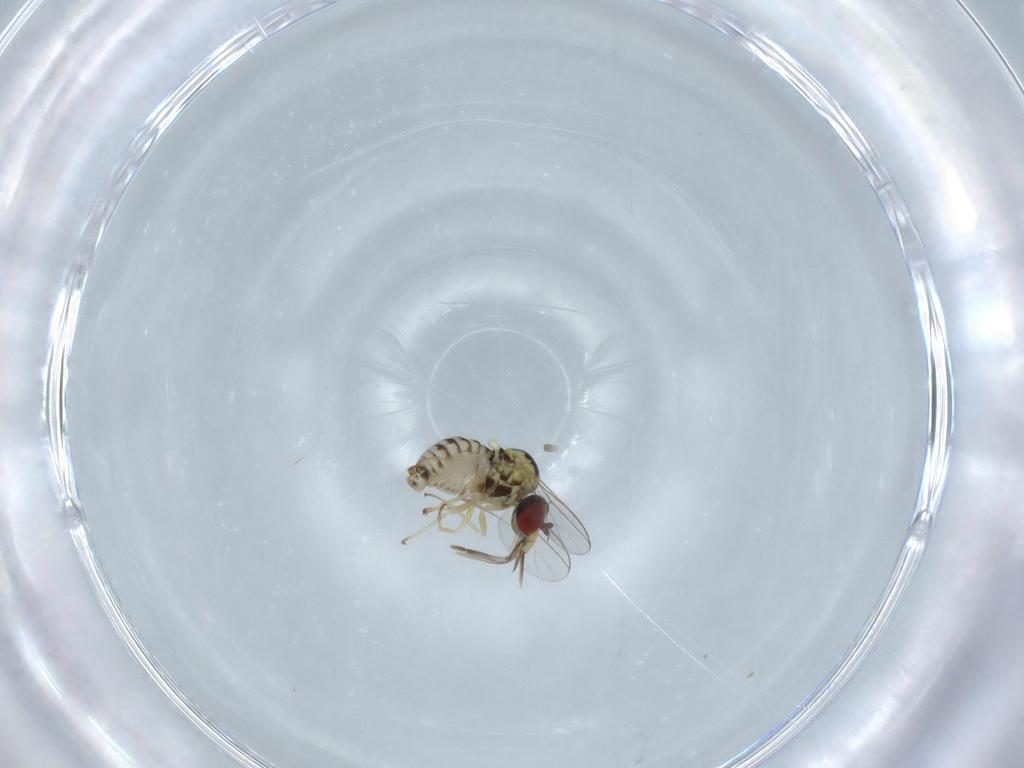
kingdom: Animalia
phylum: Arthropoda
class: Insecta
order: Diptera
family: Bombyliidae
